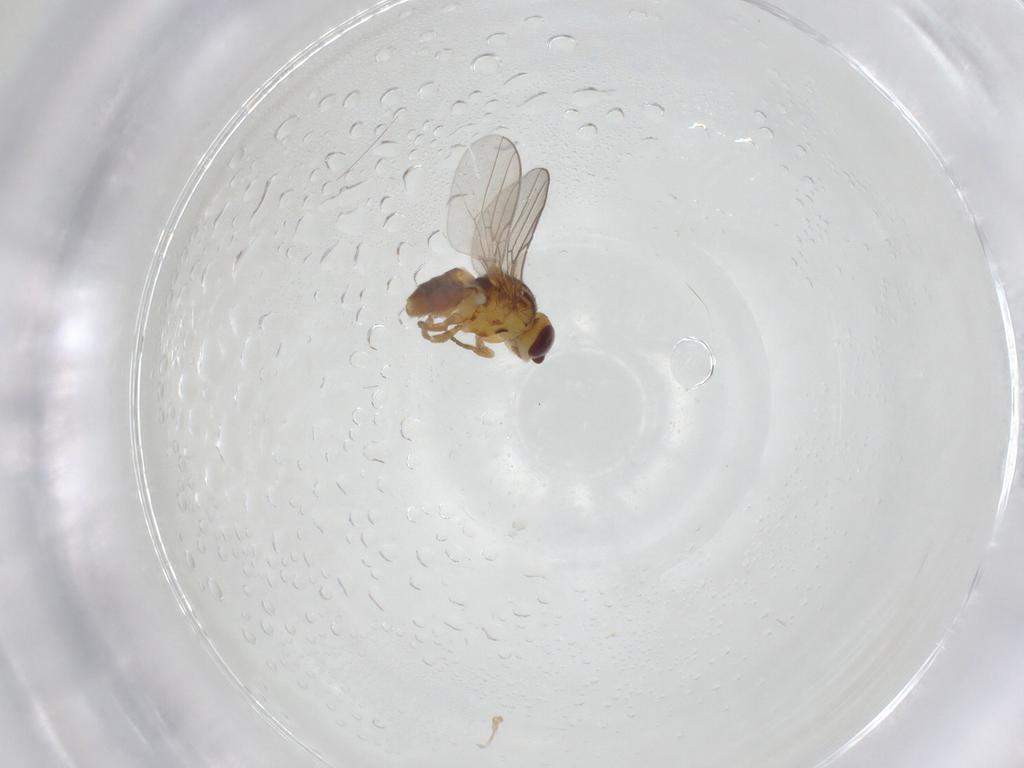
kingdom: Animalia
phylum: Arthropoda
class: Insecta
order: Diptera
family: Chloropidae
